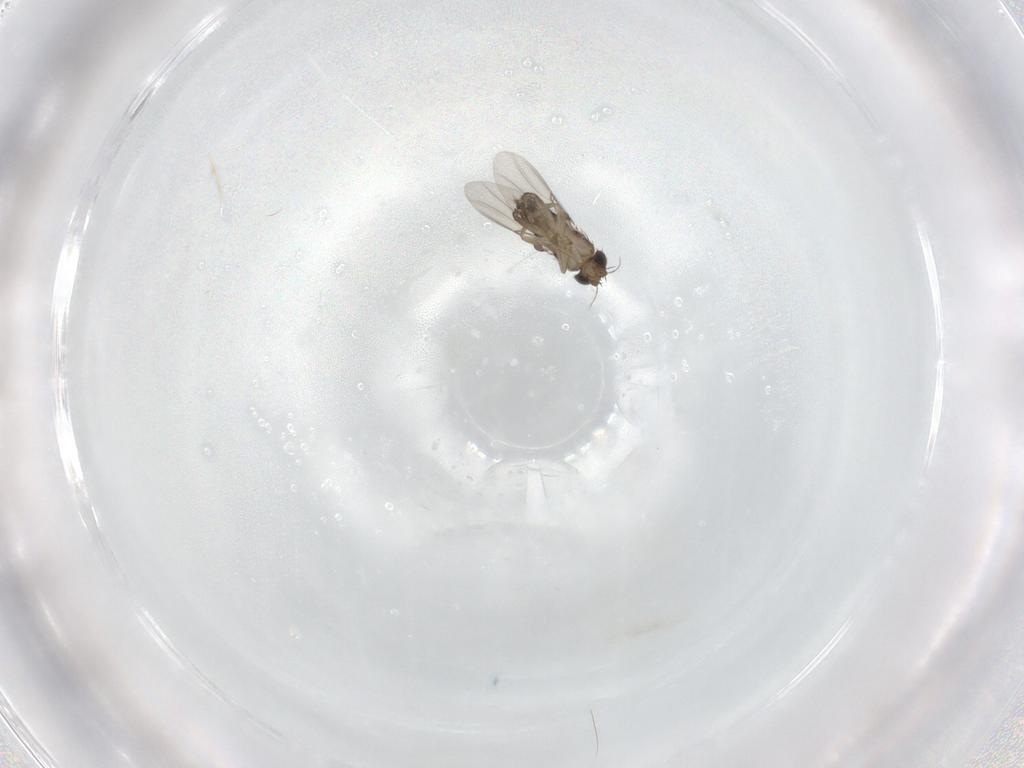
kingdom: Animalia
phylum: Arthropoda
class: Insecta
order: Diptera
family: Phoridae
